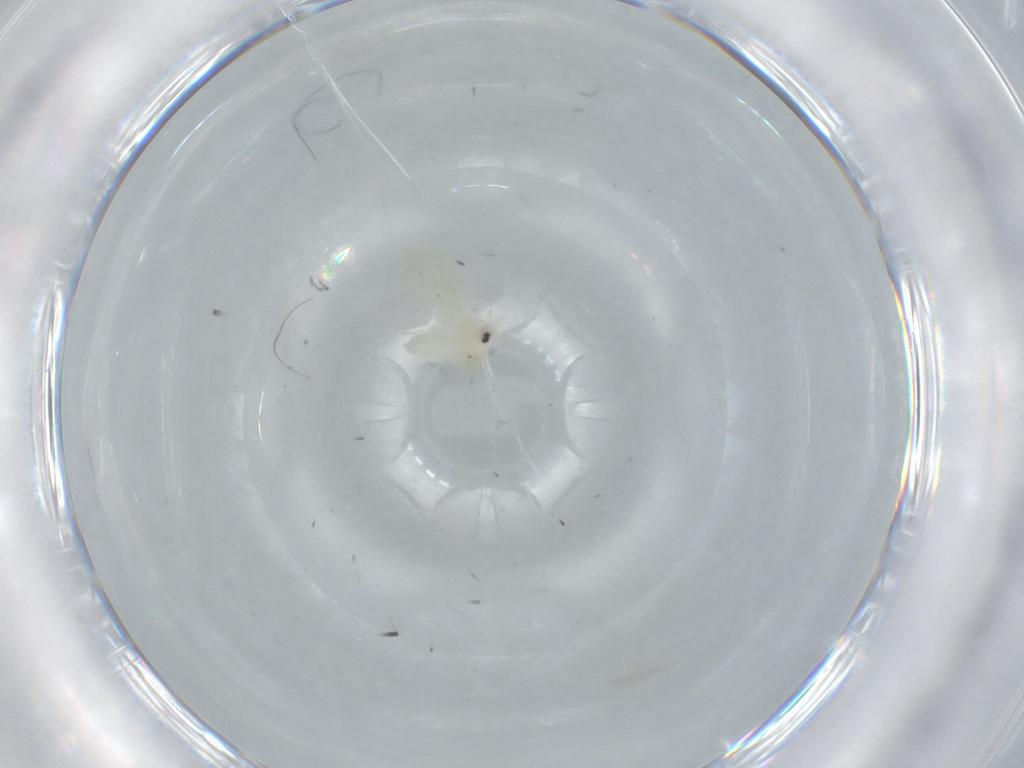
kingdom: Animalia
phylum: Arthropoda
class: Insecta
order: Hemiptera
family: Aleyrodidae
